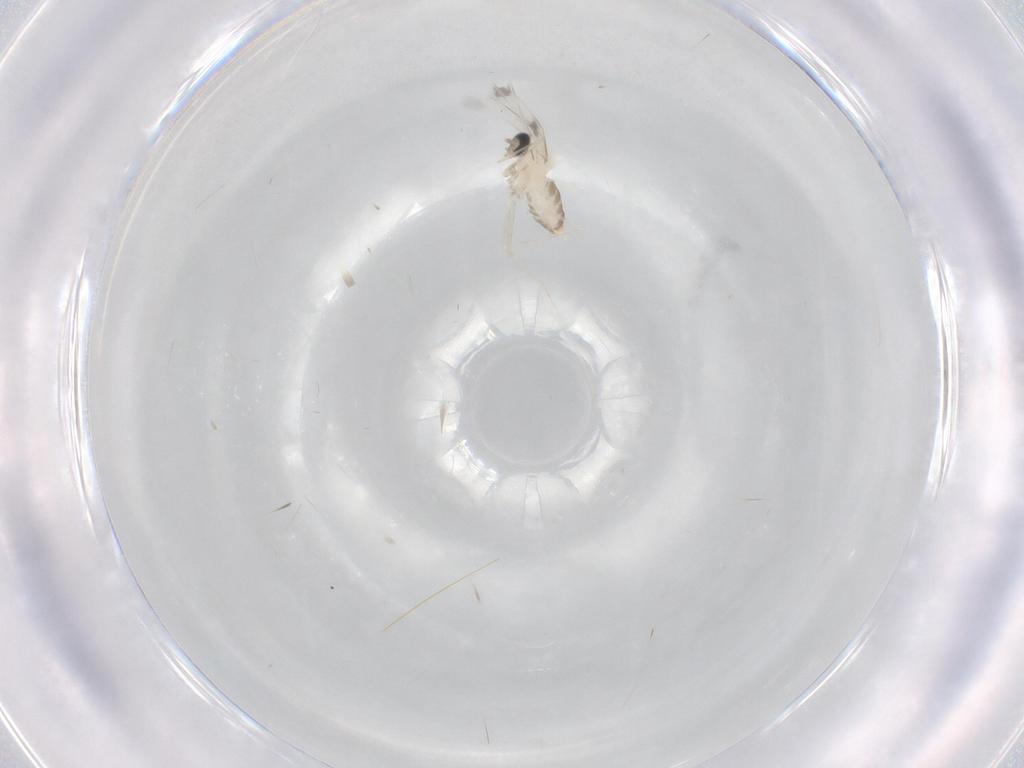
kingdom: Animalia
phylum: Arthropoda
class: Insecta
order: Diptera
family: Cecidomyiidae
